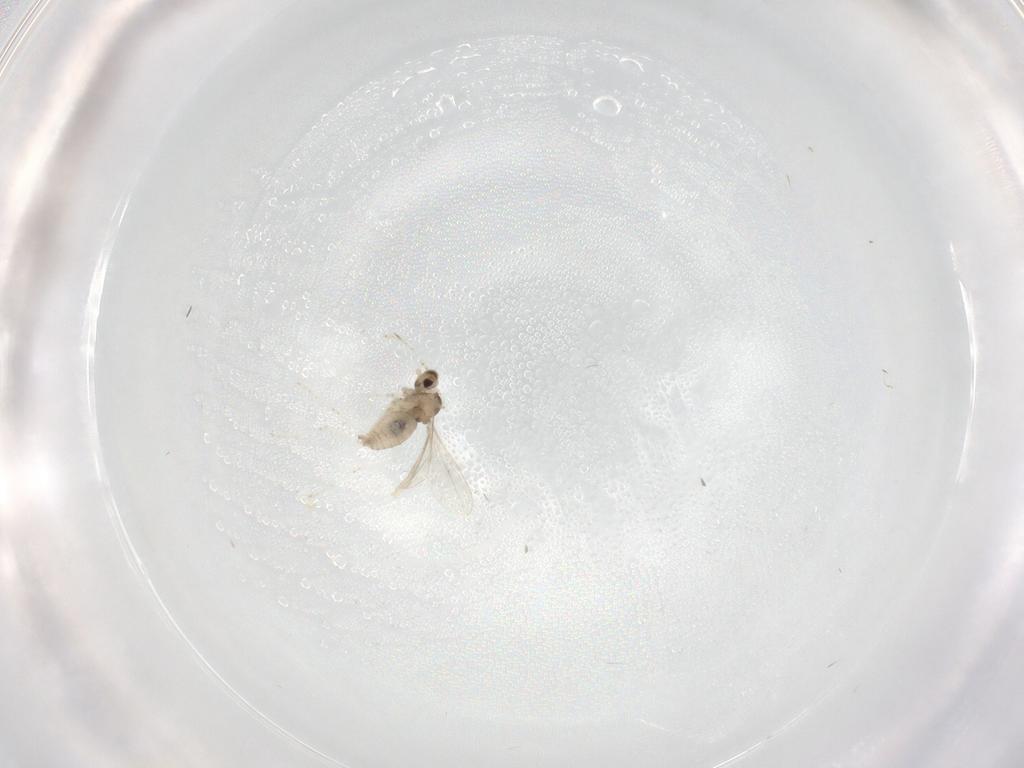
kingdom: Animalia
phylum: Arthropoda
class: Insecta
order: Diptera
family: Cecidomyiidae
